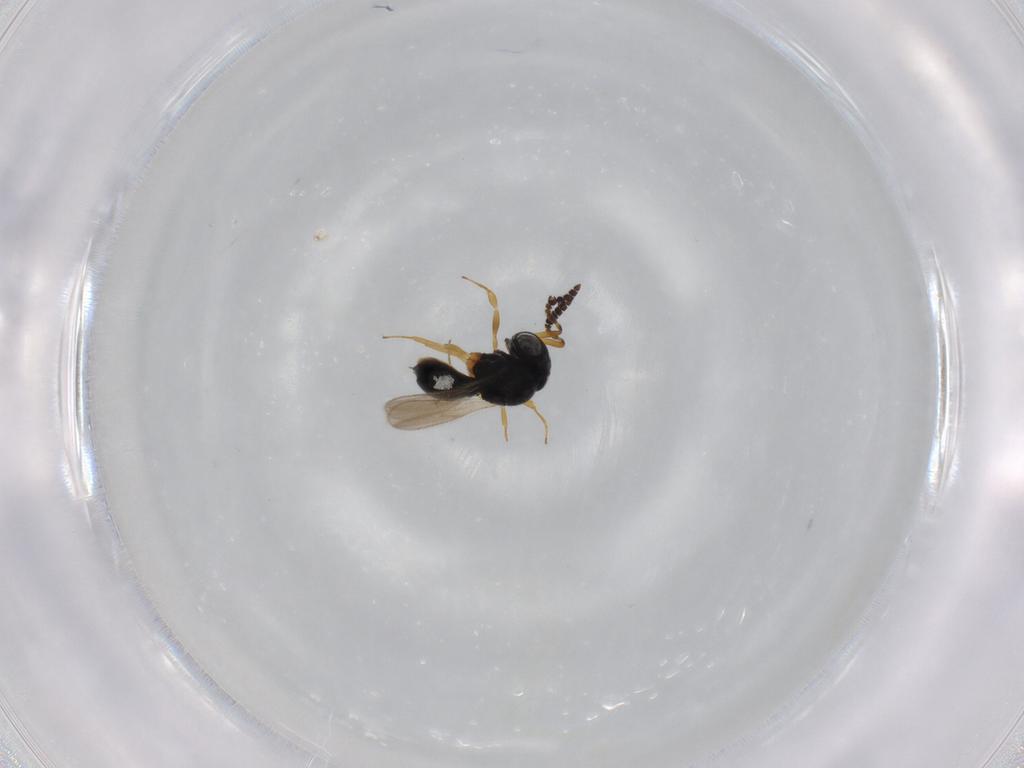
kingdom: Animalia
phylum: Arthropoda
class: Insecta
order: Hymenoptera
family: Scelionidae
